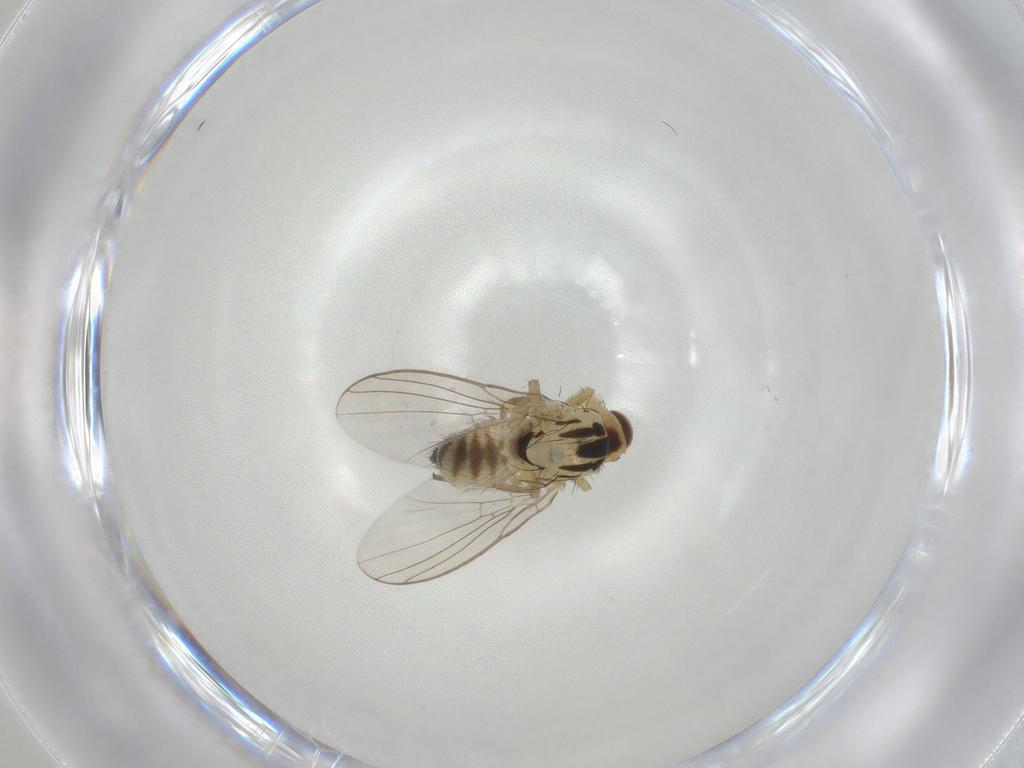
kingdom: Animalia
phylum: Arthropoda
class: Insecta
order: Diptera
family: Agromyzidae
